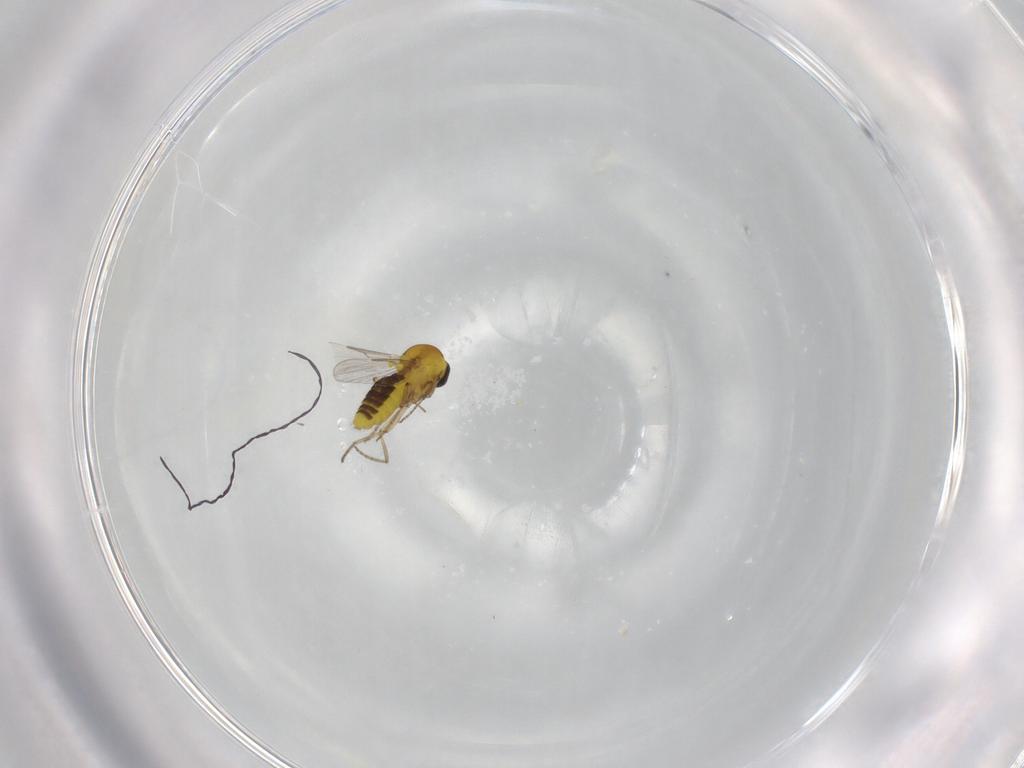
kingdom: Animalia
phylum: Arthropoda
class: Insecta
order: Diptera
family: Ceratopogonidae
